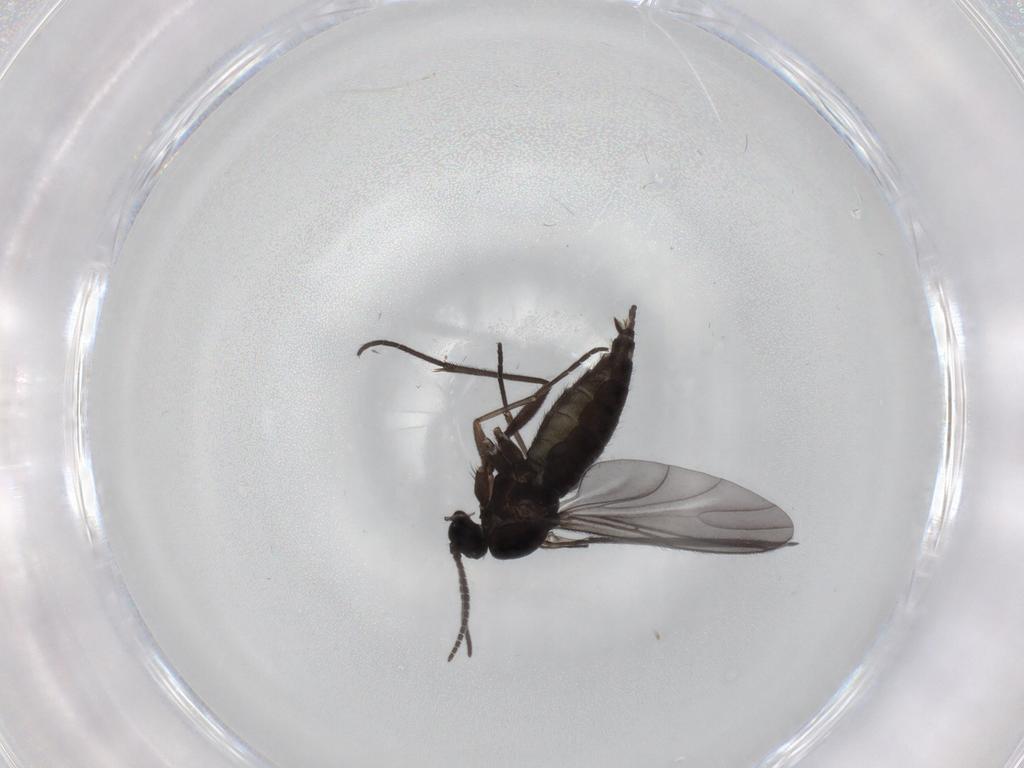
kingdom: Animalia
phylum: Arthropoda
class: Insecta
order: Diptera
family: Sciaridae
